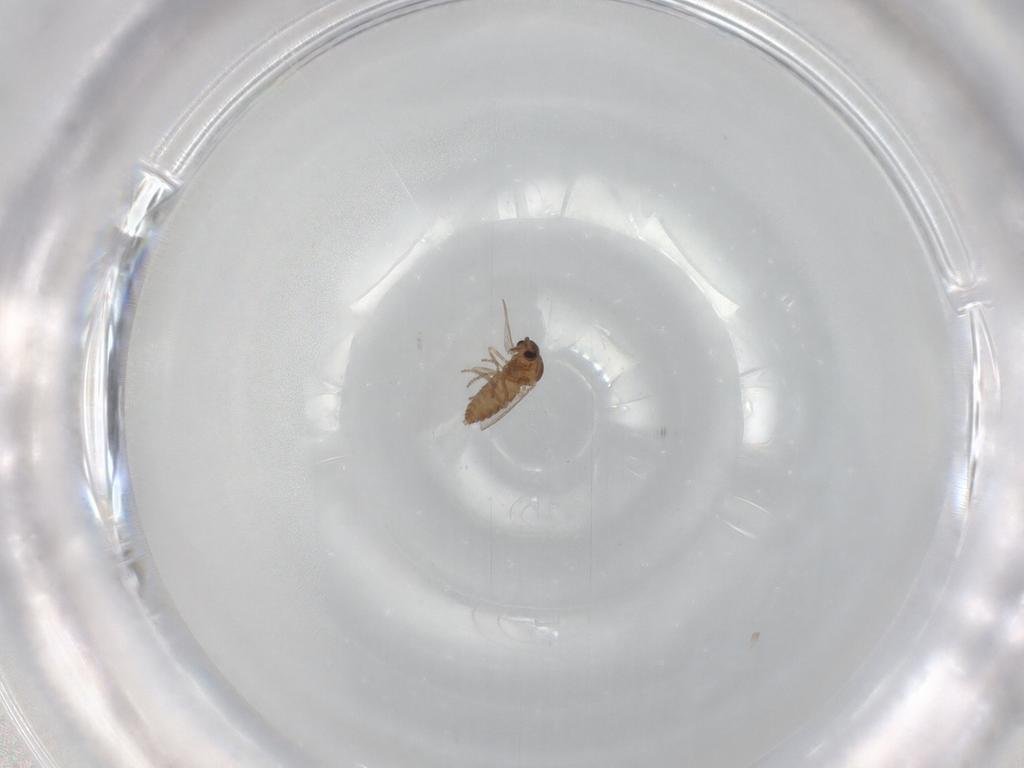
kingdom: Animalia
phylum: Arthropoda
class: Insecta
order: Diptera
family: Ceratopogonidae
